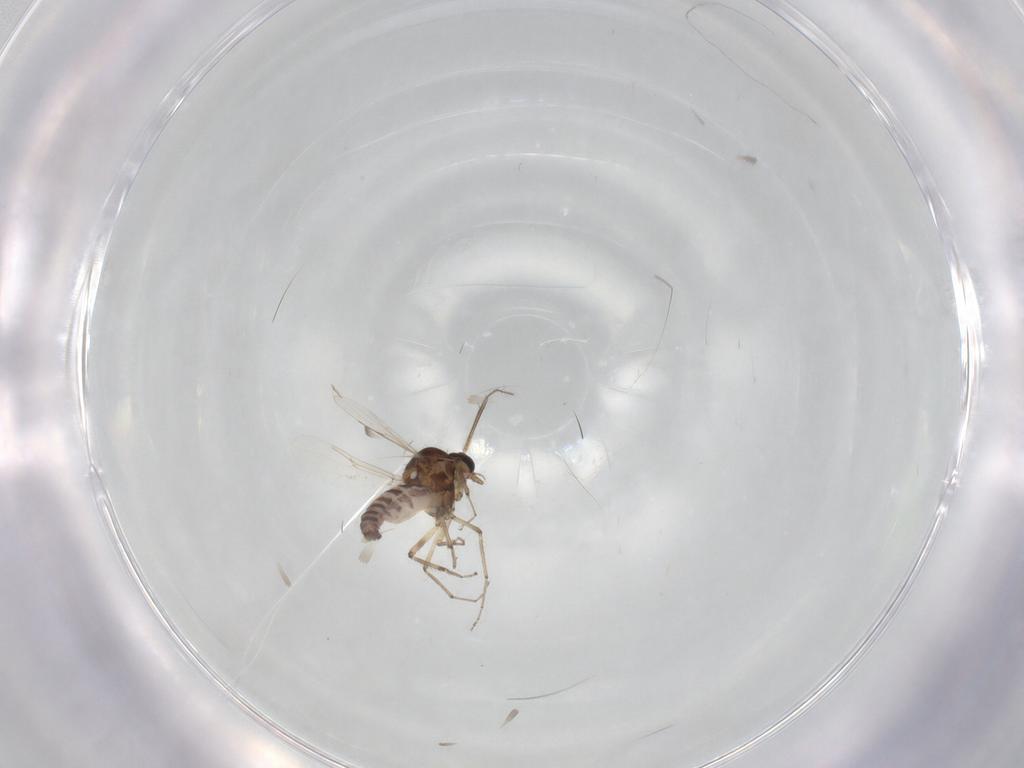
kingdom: Animalia
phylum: Arthropoda
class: Insecta
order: Diptera
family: Ceratopogonidae
